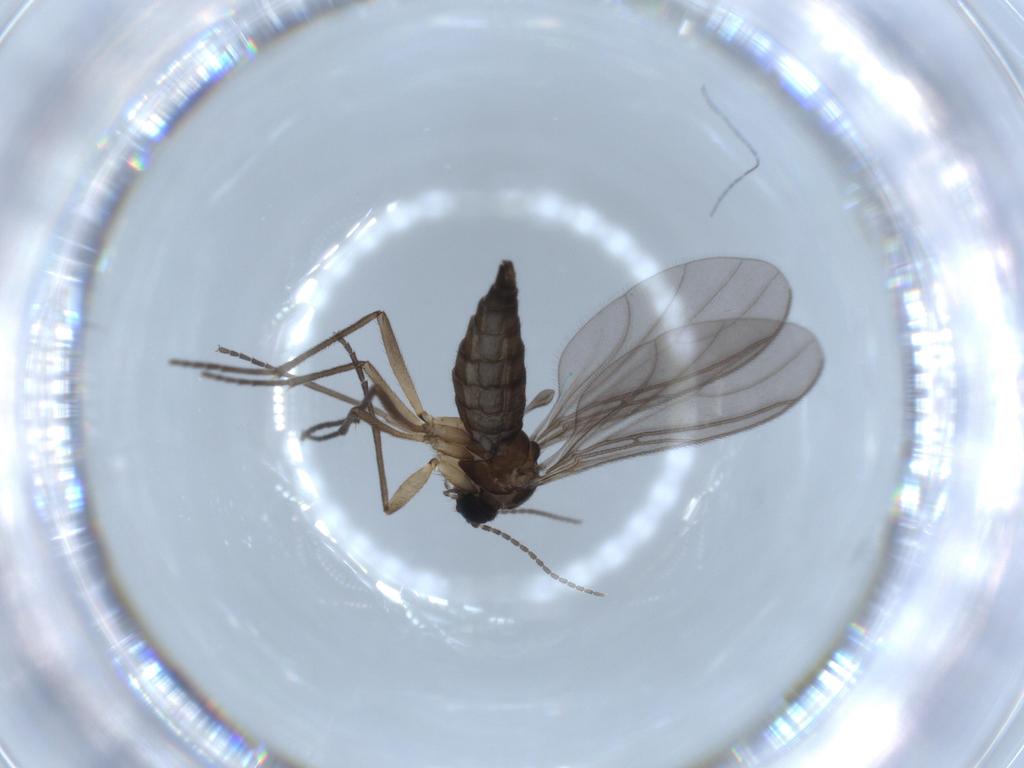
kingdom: Animalia
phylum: Arthropoda
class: Insecta
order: Diptera
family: Sciaridae
